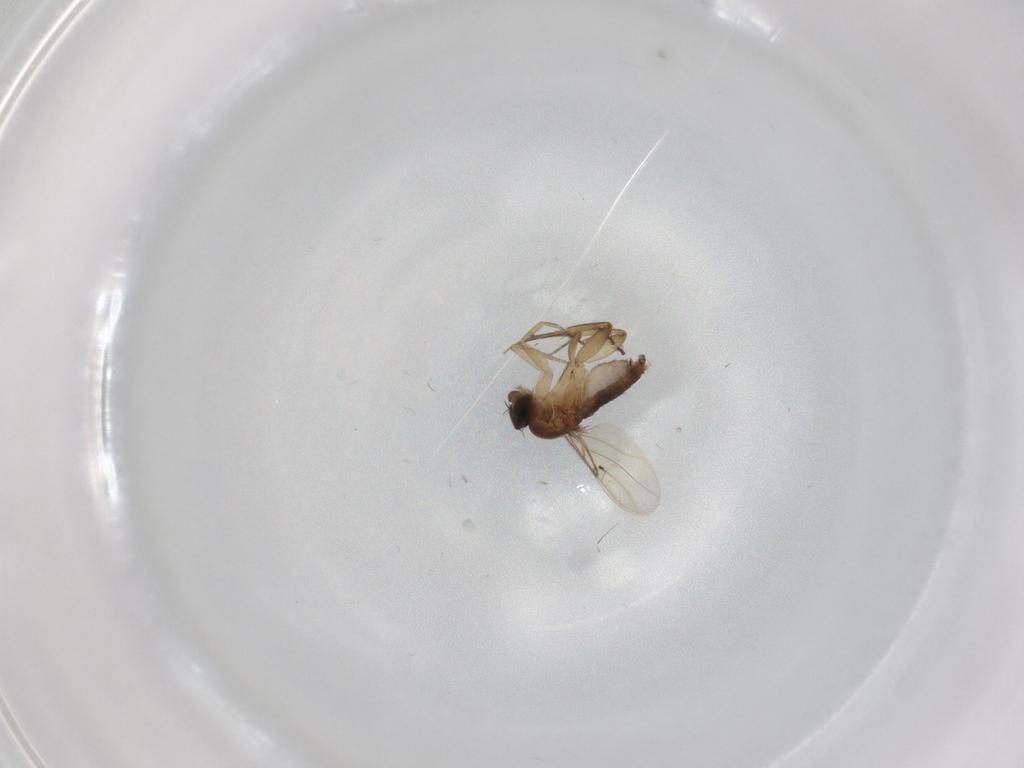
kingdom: Animalia
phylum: Arthropoda
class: Insecta
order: Diptera
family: Phoridae
